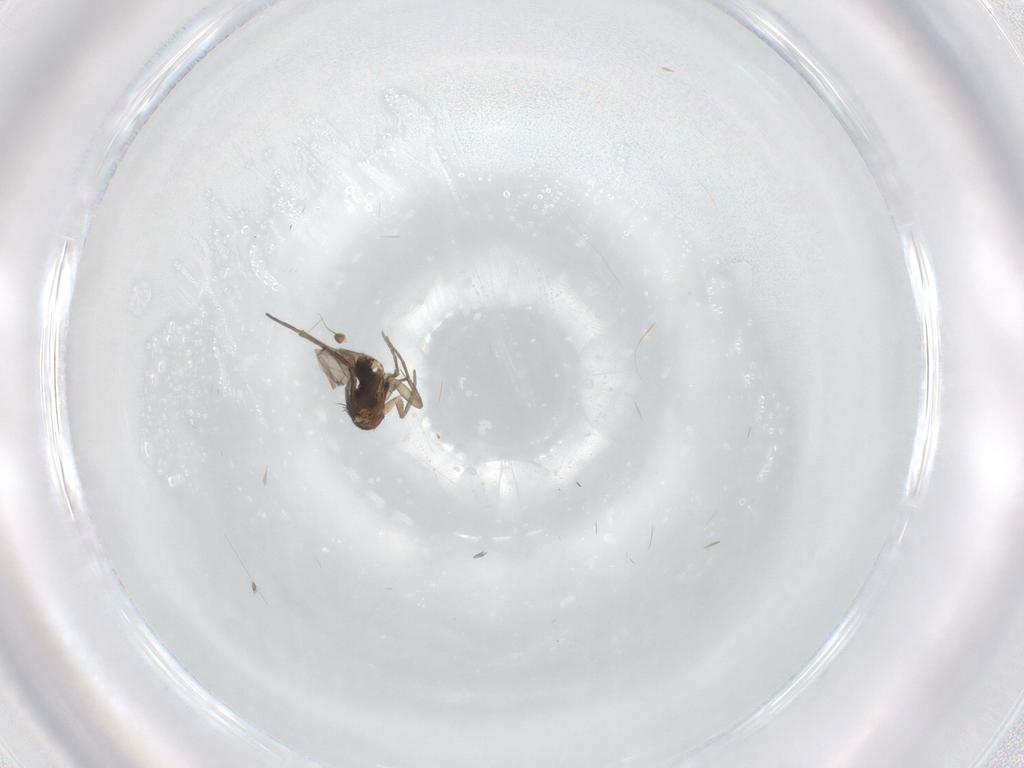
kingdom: Animalia
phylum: Arthropoda
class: Insecta
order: Diptera
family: Phoridae
